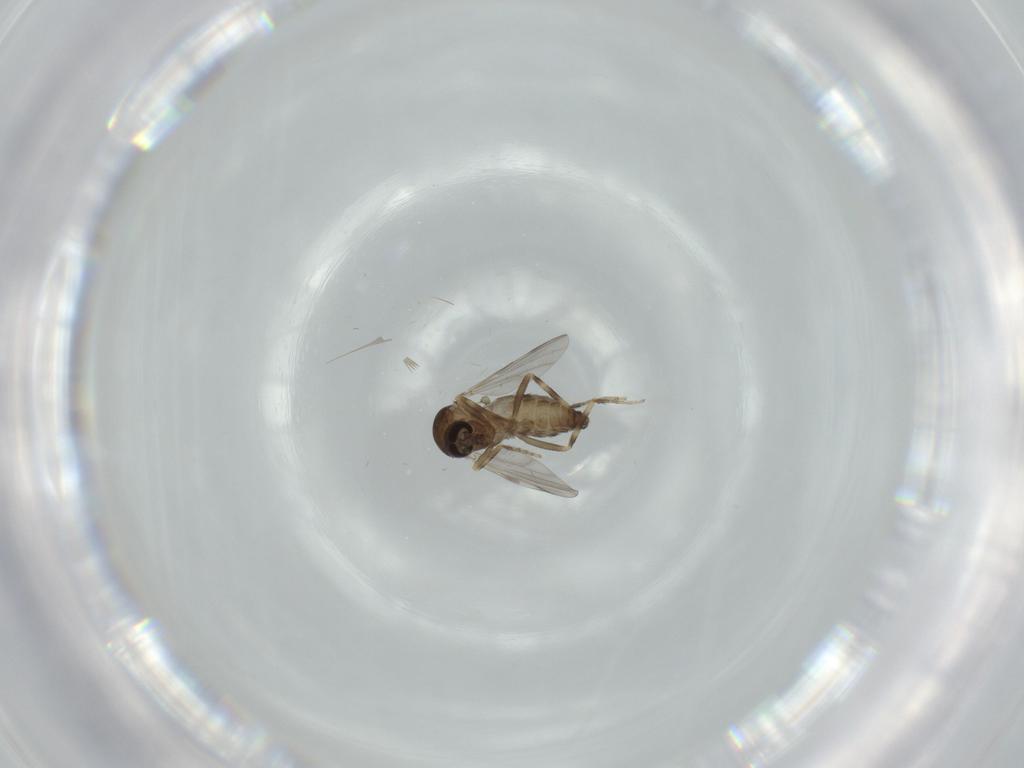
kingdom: Animalia
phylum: Arthropoda
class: Insecta
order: Diptera
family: Ceratopogonidae
